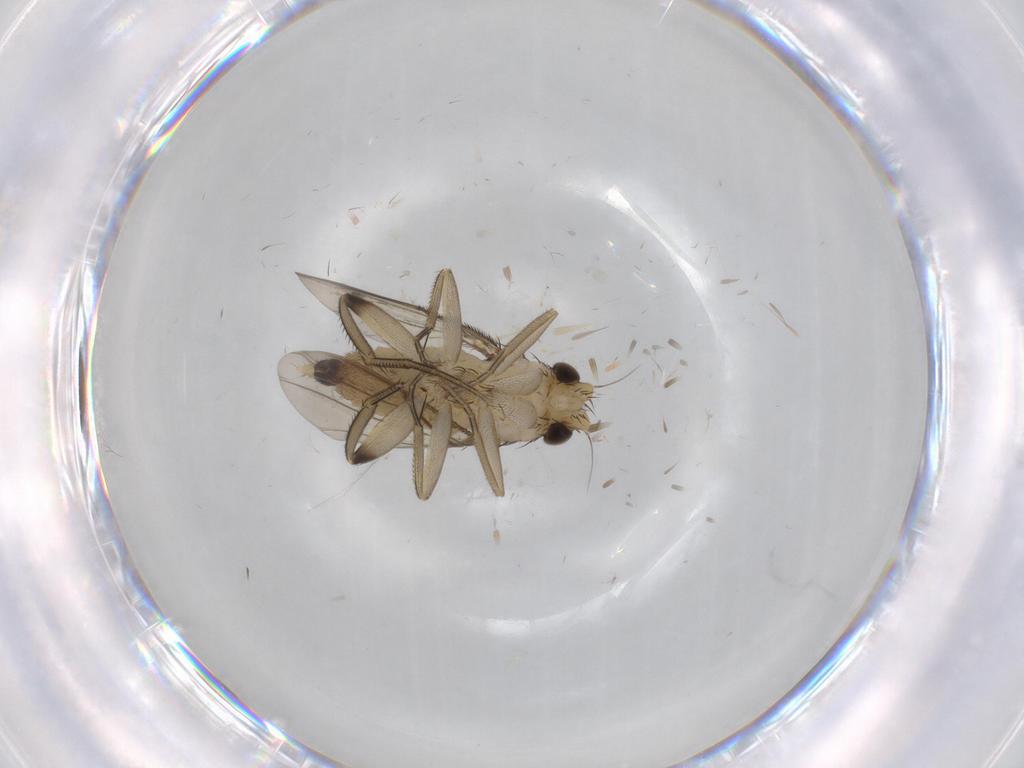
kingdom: Animalia
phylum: Arthropoda
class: Insecta
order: Diptera
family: Phoridae
